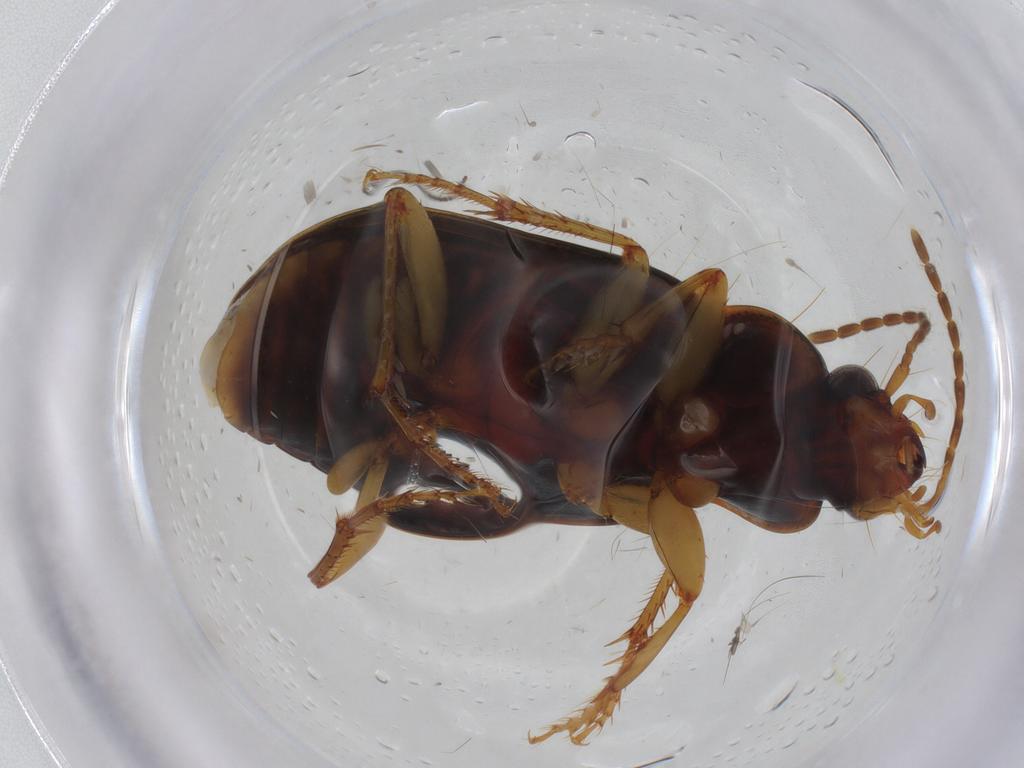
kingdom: Animalia
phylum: Arthropoda
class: Insecta
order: Coleoptera
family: Carabidae
